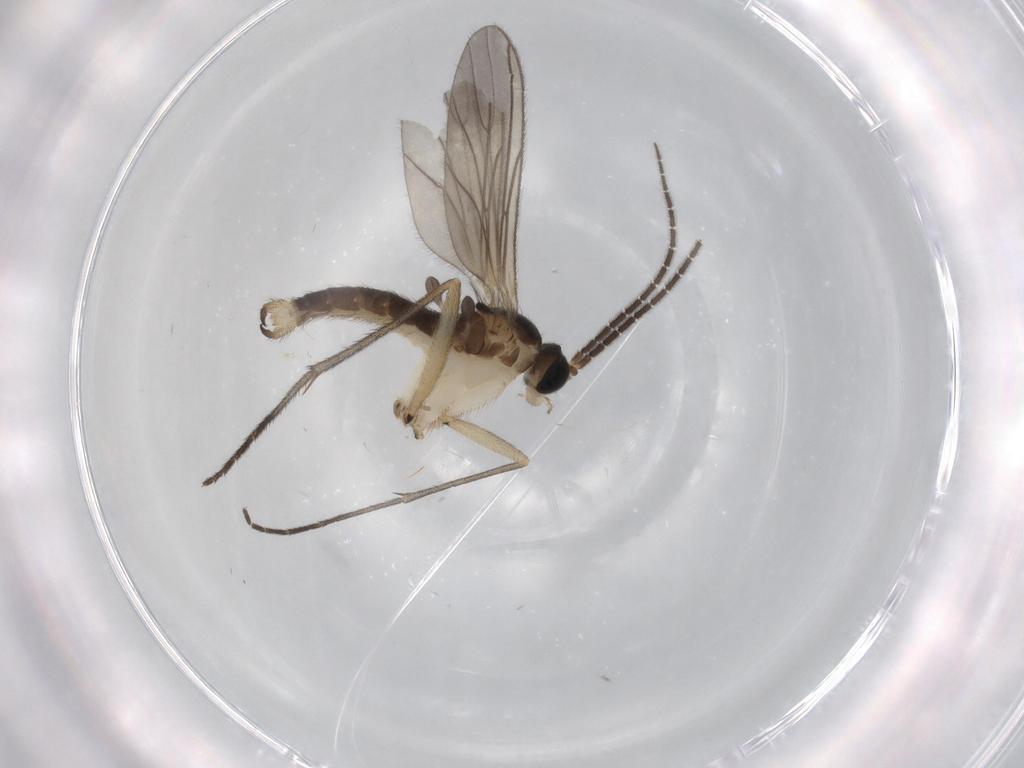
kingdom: Animalia
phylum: Arthropoda
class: Insecta
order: Diptera
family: Sciaridae
